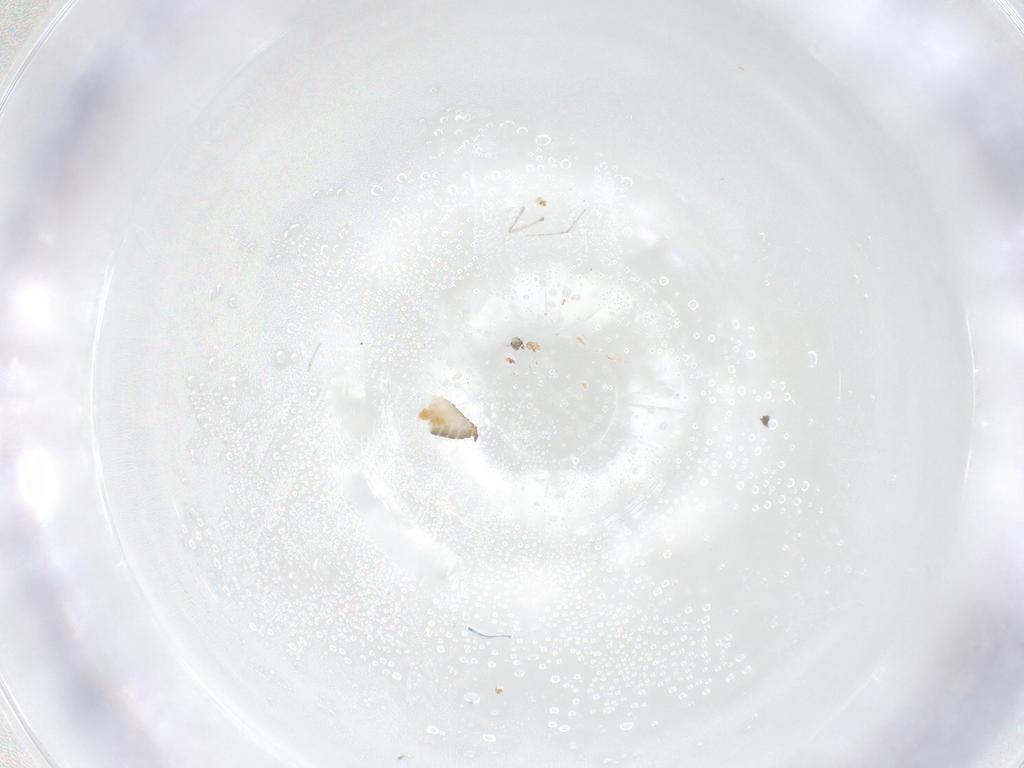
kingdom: Animalia
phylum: Arthropoda
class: Insecta
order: Diptera
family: Cecidomyiidae
